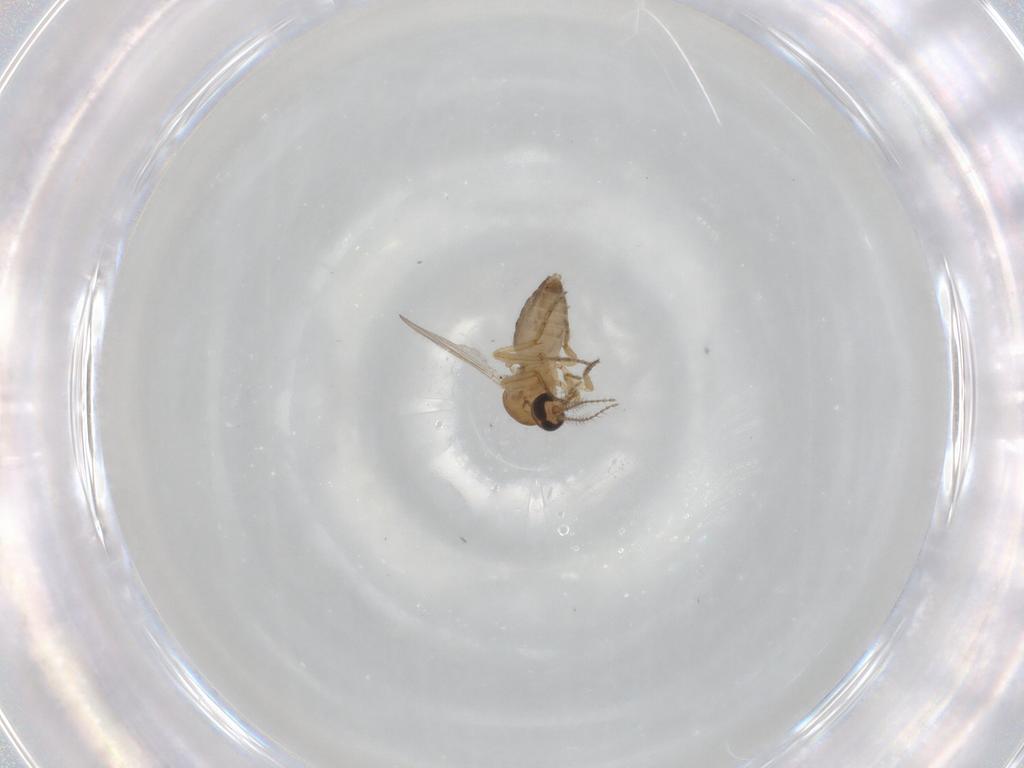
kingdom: Animalia
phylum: Arthropoda
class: Insecta
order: Diptera
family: Ceratopogonidae
